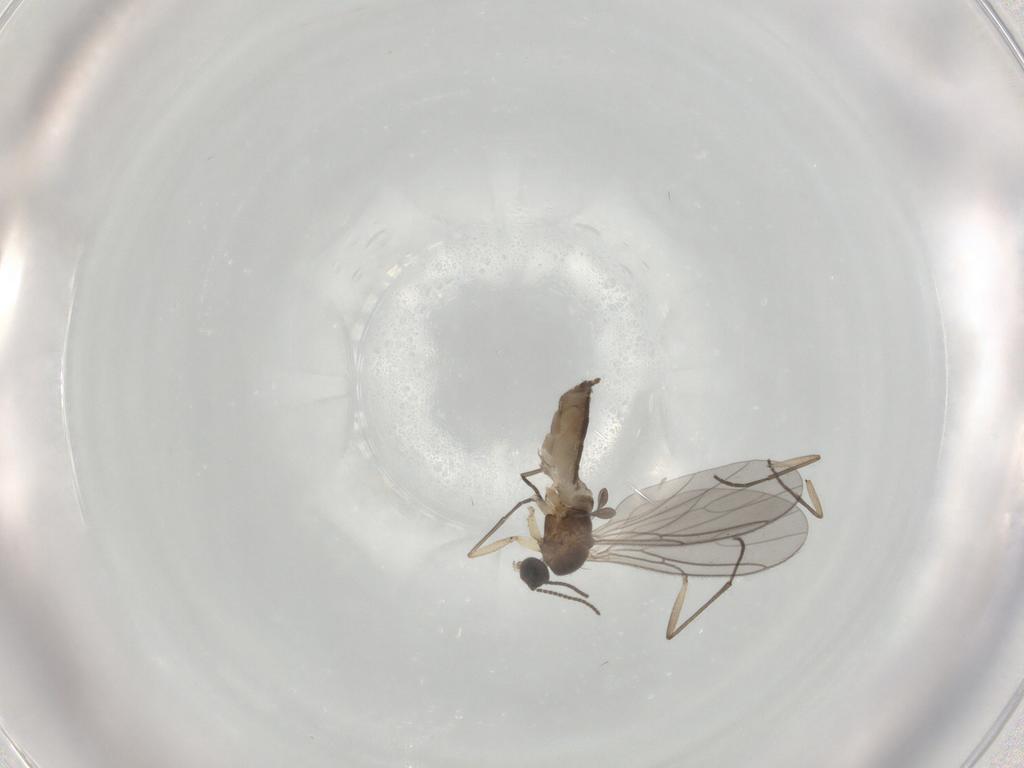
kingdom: Animalia
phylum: Arthropoda
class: Insecta
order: Diptera
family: Sciaridae
